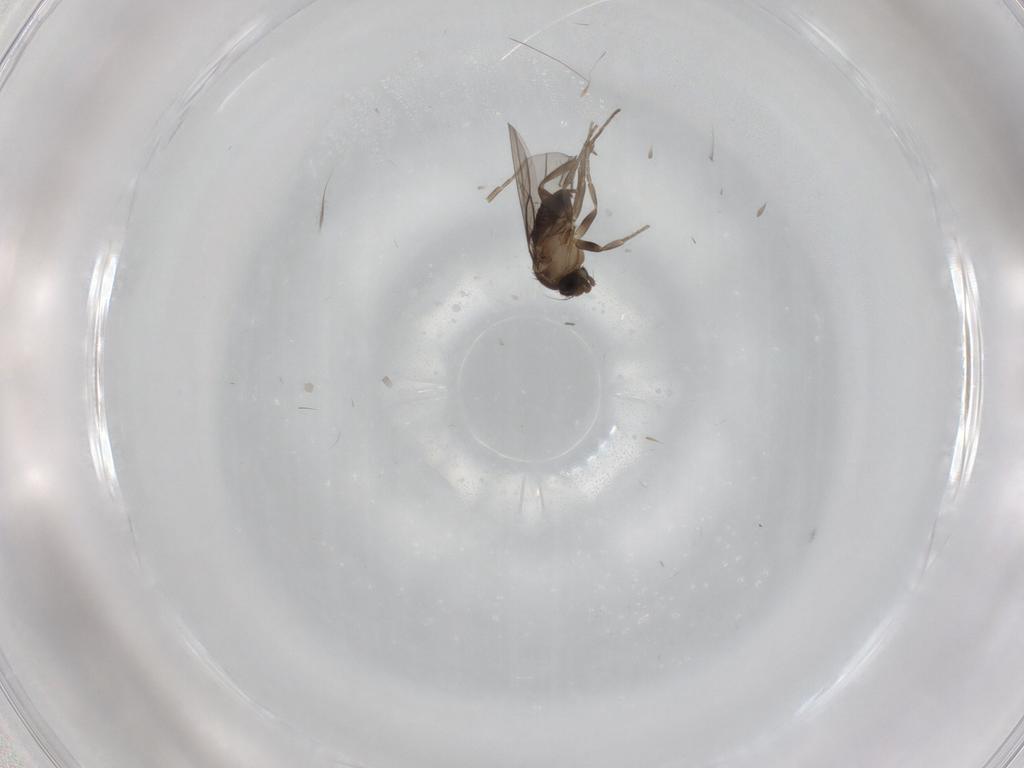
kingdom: Animalia
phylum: Arthropoda
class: Insecta
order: Diptera
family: Phoridae
